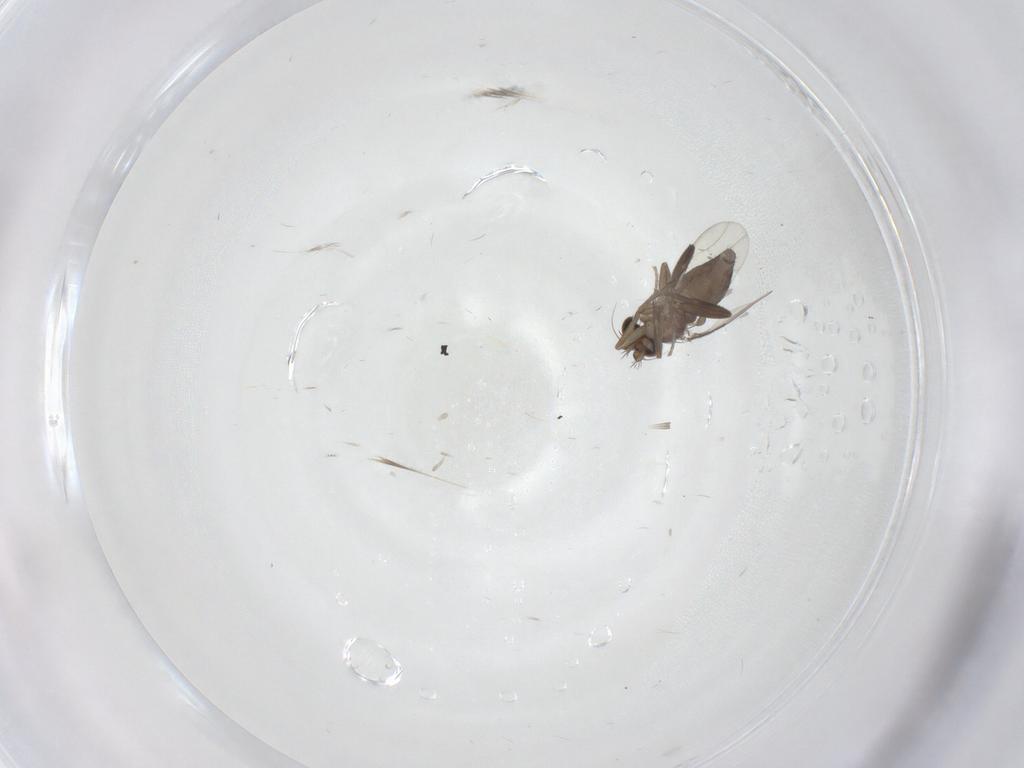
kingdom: Animalia
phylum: Arthropoda
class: Insecta
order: Diptera
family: Phoridae
